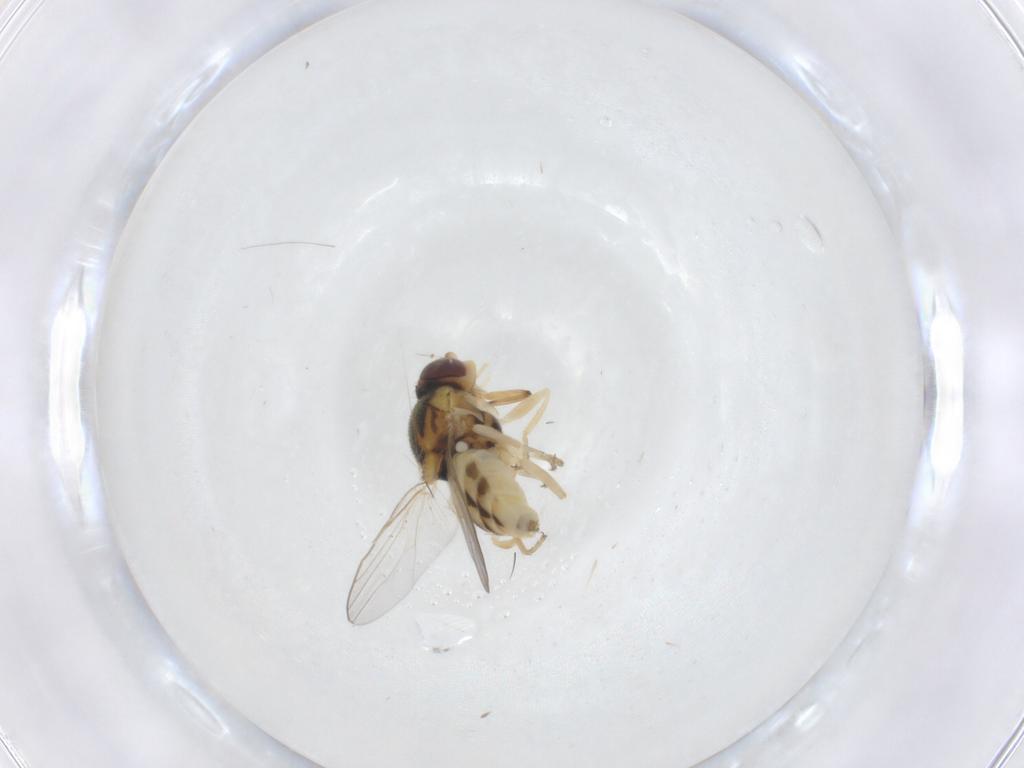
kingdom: Animalia
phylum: Arthropoda
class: Insecta
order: Diptera
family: Chloropidae
